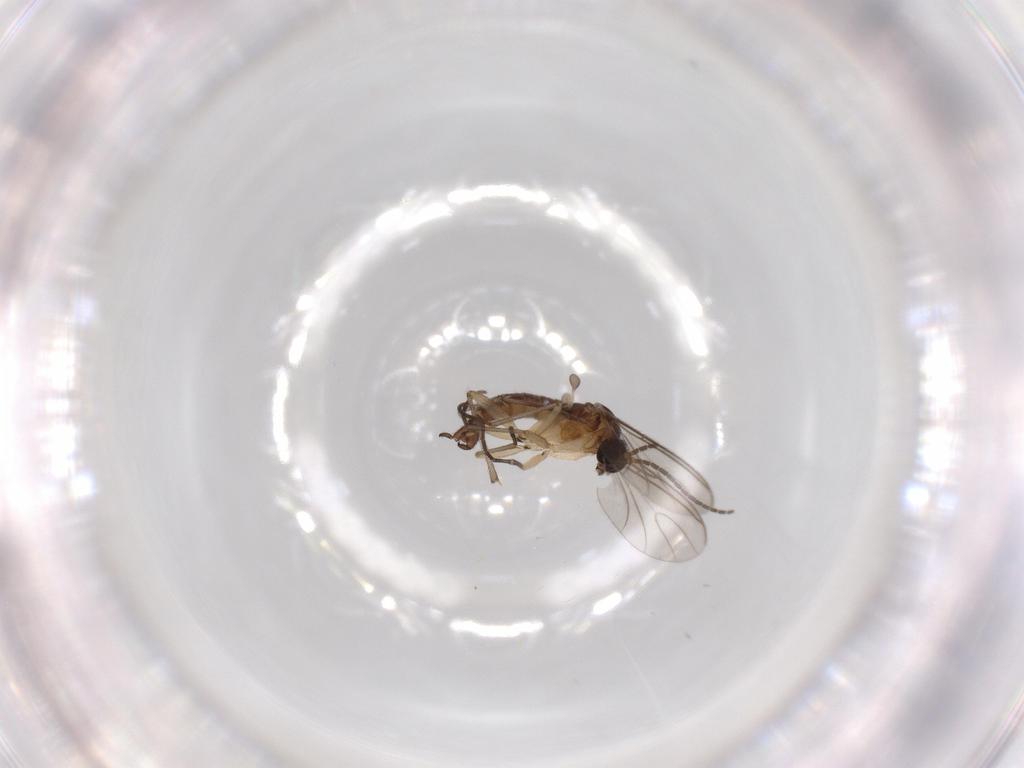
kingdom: Animalia
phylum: Arthropoda
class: Insecta
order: Diptera
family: Sciaridae
